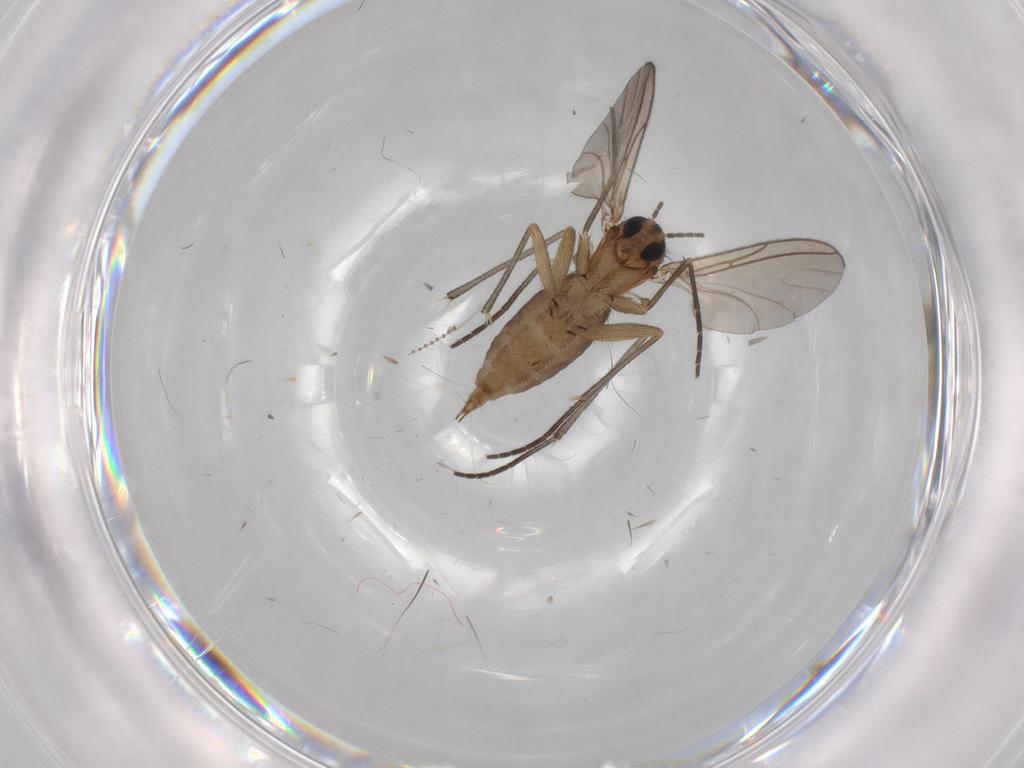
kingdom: Animalia
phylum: Arthropoda
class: Insecta
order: Diptera
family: Sciaridae
